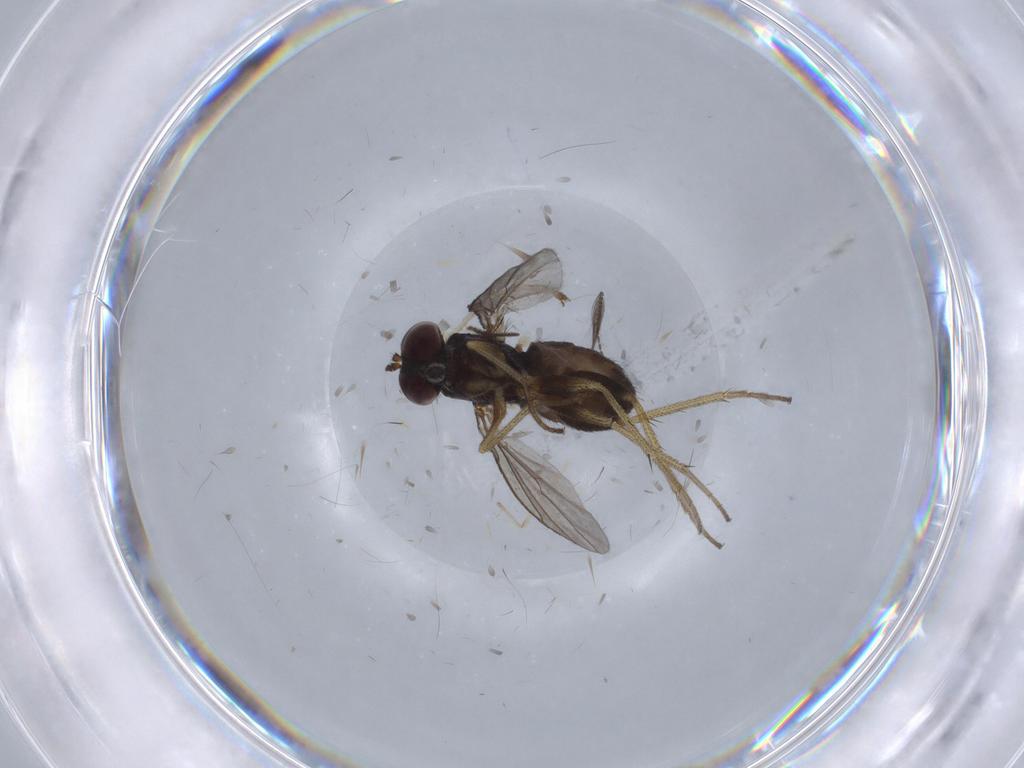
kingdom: Animalia
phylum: Arthropoda
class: Insecta
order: Diptera
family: Limoniidae
